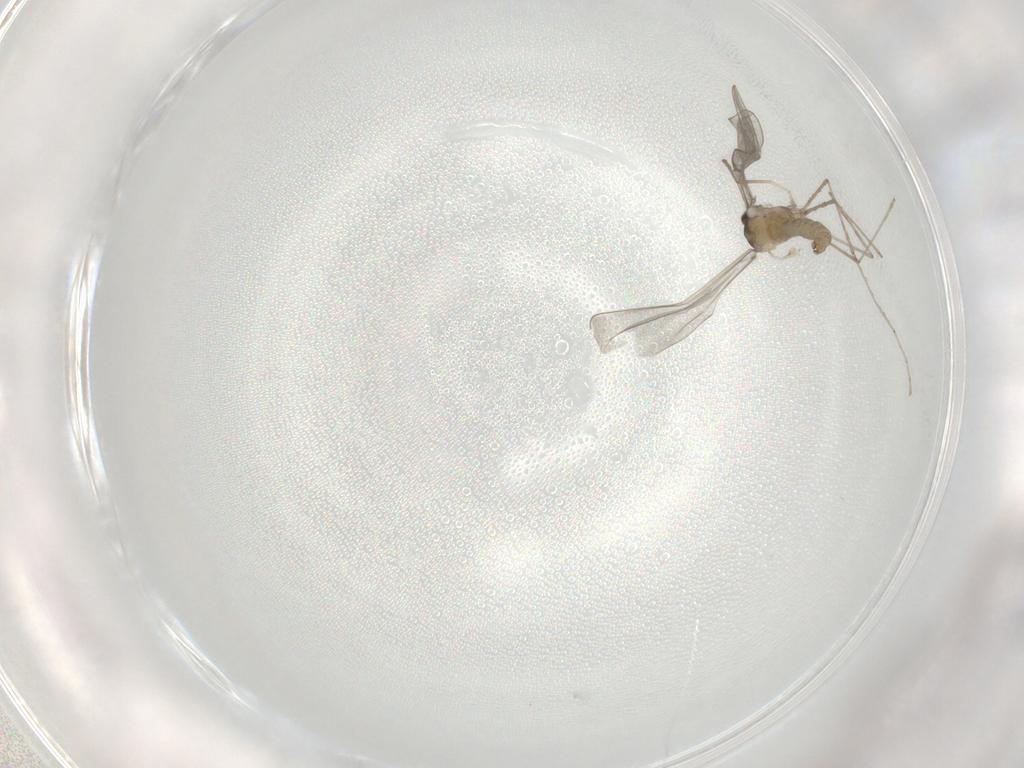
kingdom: Animalia
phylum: Arthropoda
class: Insecta
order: Diptera
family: Cecidomyiidae
